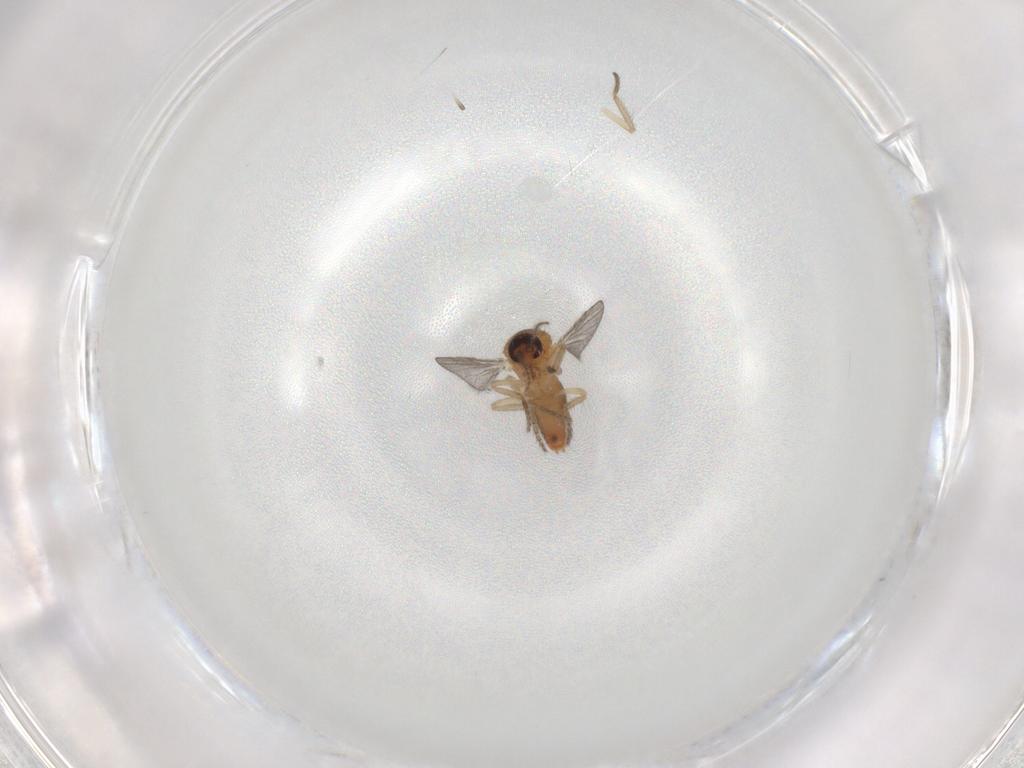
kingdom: Animalia
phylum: Arthropoda
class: Insecta
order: Diptera
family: Ceratopogonidae
